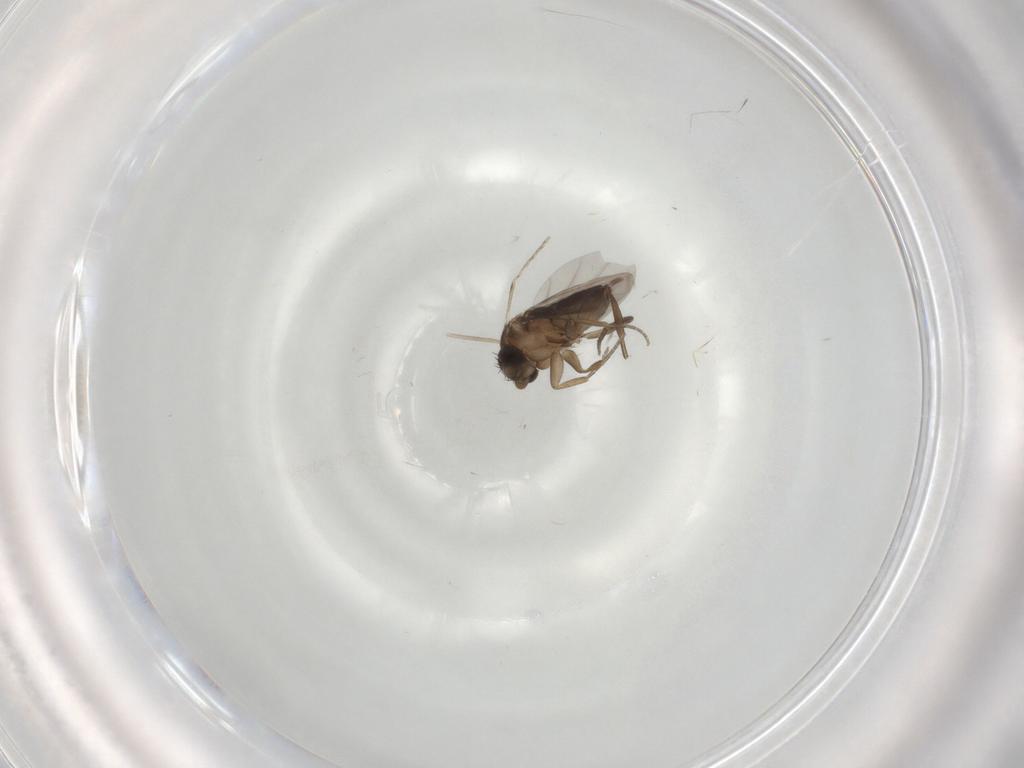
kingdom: Animalia
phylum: Arthropoda
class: Insecta
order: Diptera
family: Phoridae
